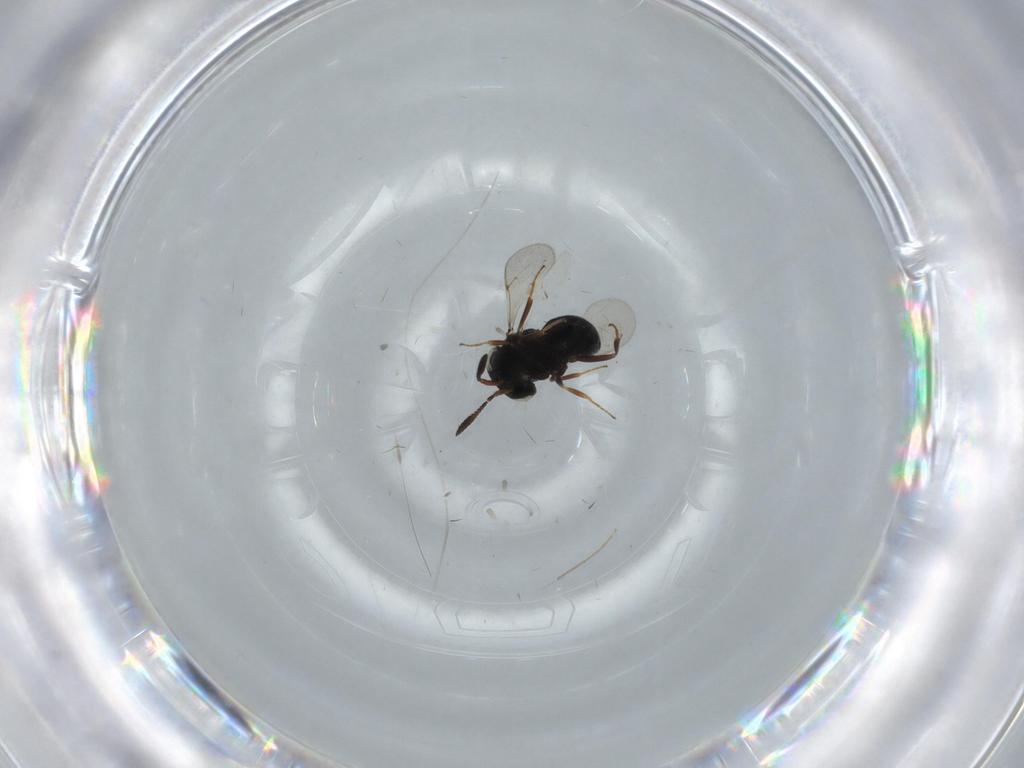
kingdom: Animalia
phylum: Arthropoda
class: Insecta
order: Hymenoptera
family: Scelionidae
